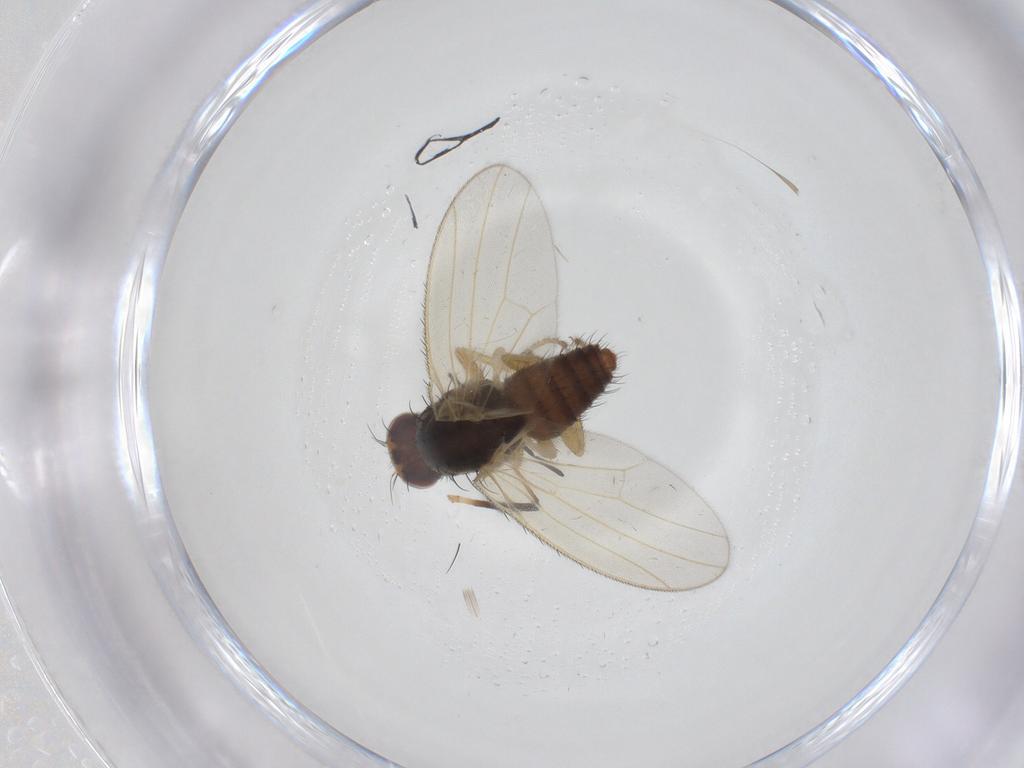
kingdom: Animalia
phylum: Arthropoda
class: Insecta
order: Diptera
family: Heleomyzidae
